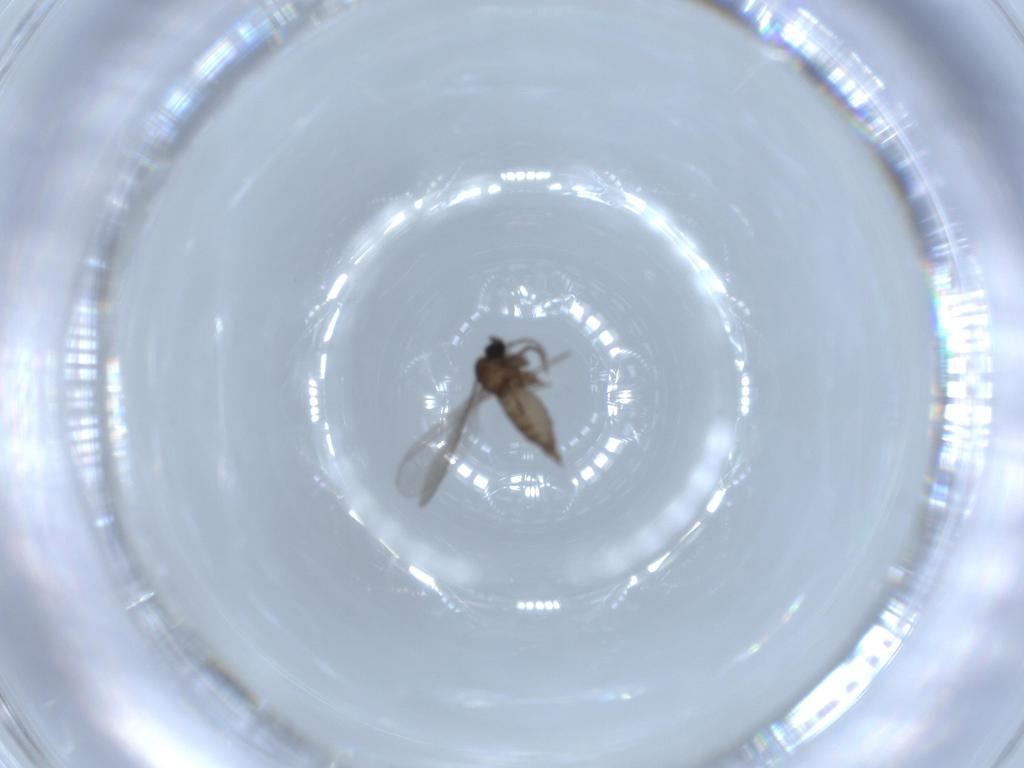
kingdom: Animalia
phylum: Arthropoda
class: Insecta
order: Diptera
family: Sciaridae
